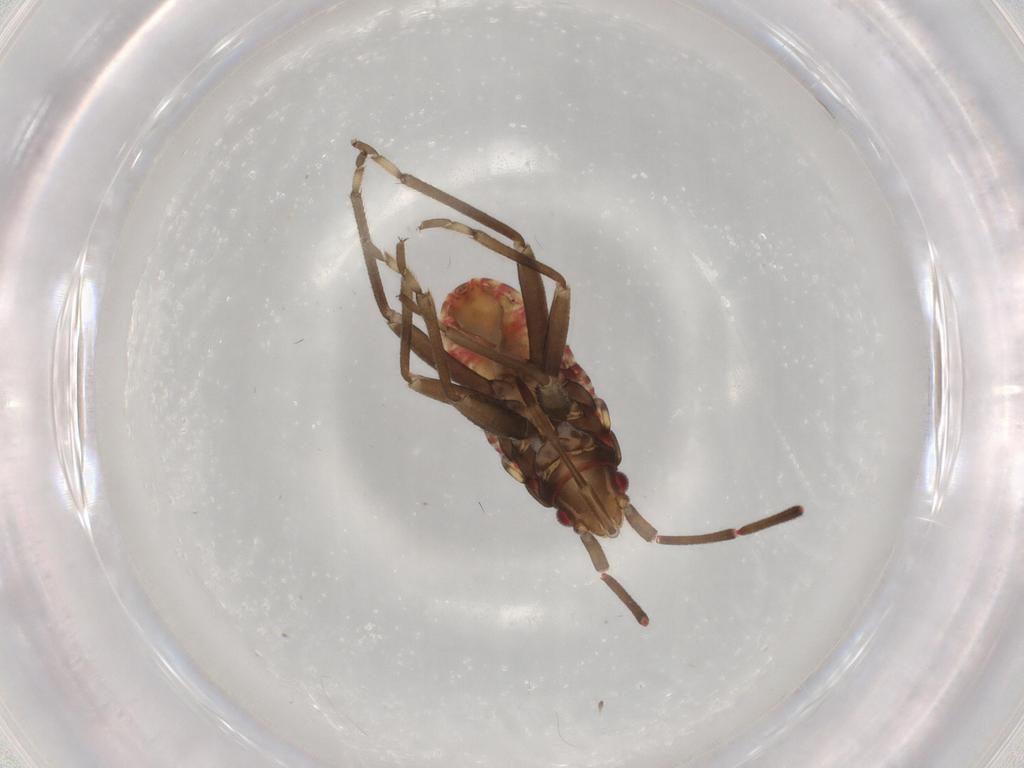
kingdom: Animalia
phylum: Arthropoda
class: Insecta
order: Hemiptera
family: Rhyparochromidae
